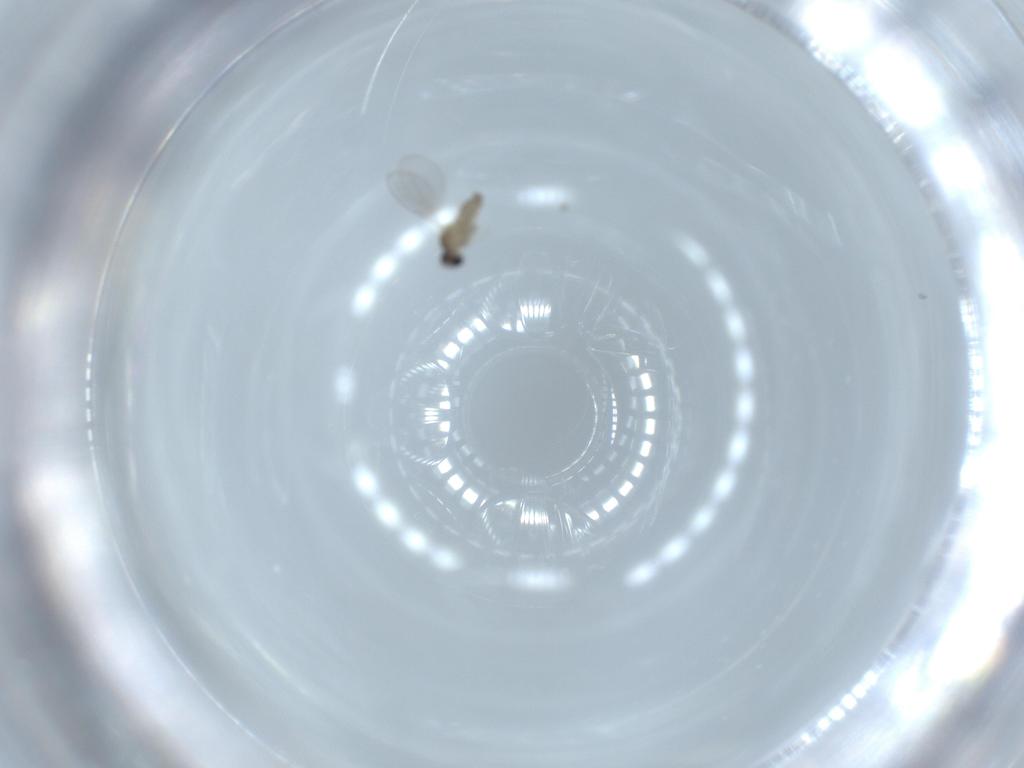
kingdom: Animalia
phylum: Arthropoda
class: Insecta
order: Diptera
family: Cecidomyiidae
